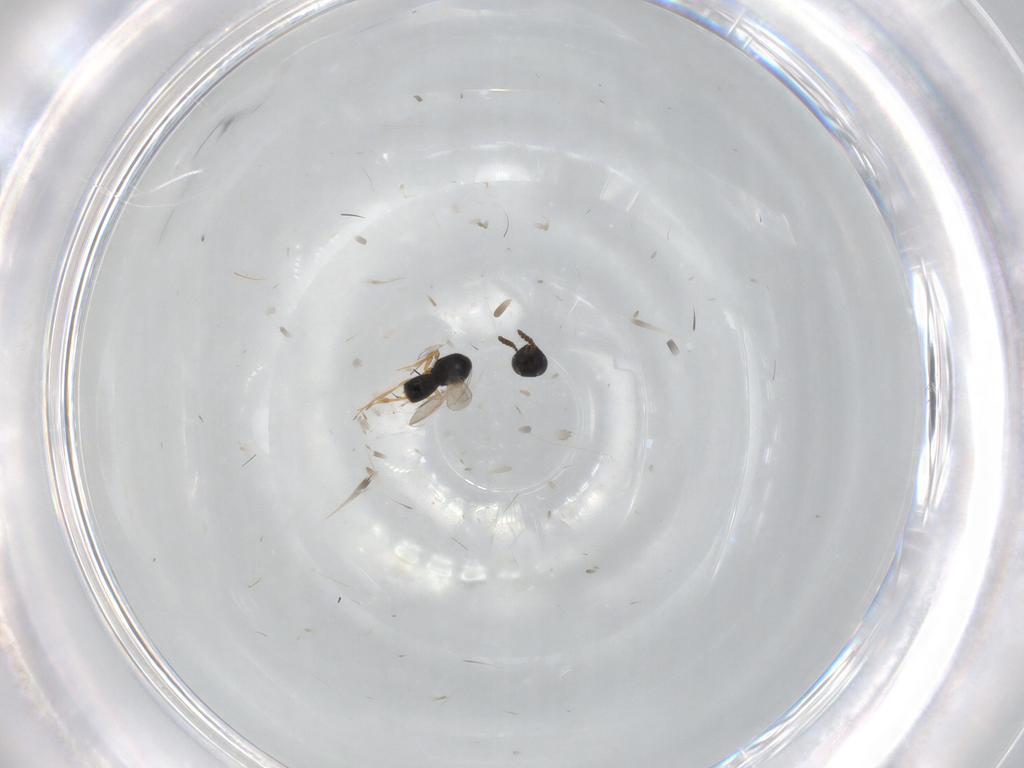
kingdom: Animalia
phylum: Arthropoda
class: Insecta
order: Hymenoptera
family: Scelionidae
